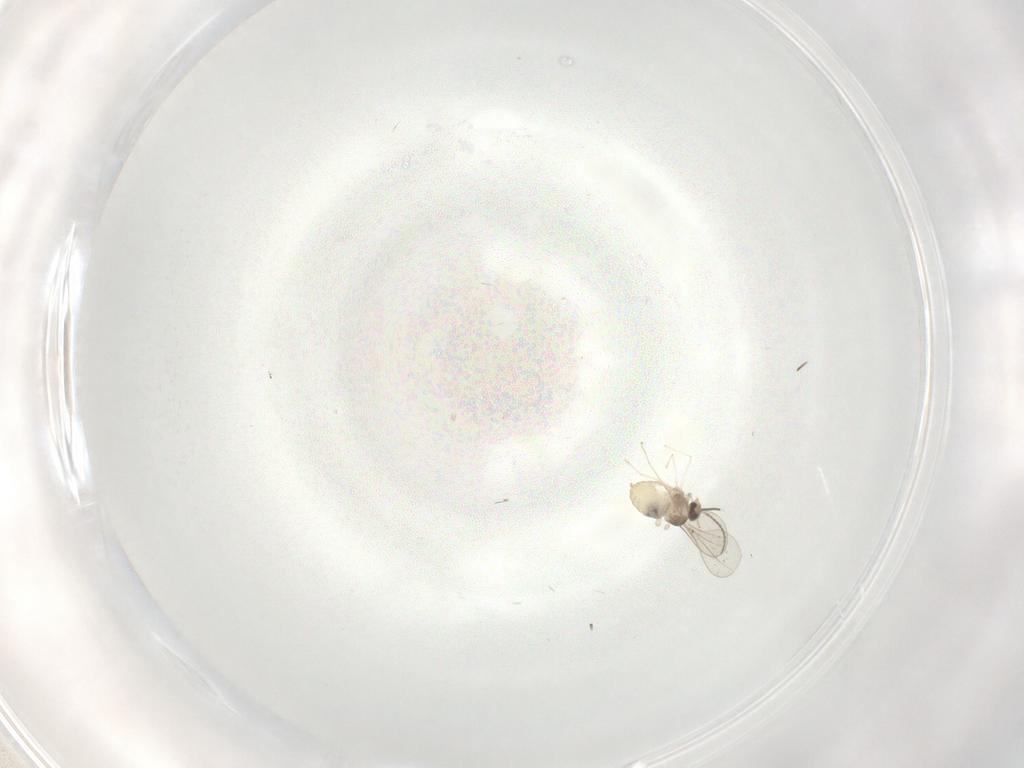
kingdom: Animalia
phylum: Arthropoda
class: Insecta
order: Diptera
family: Cecidomyiidae
